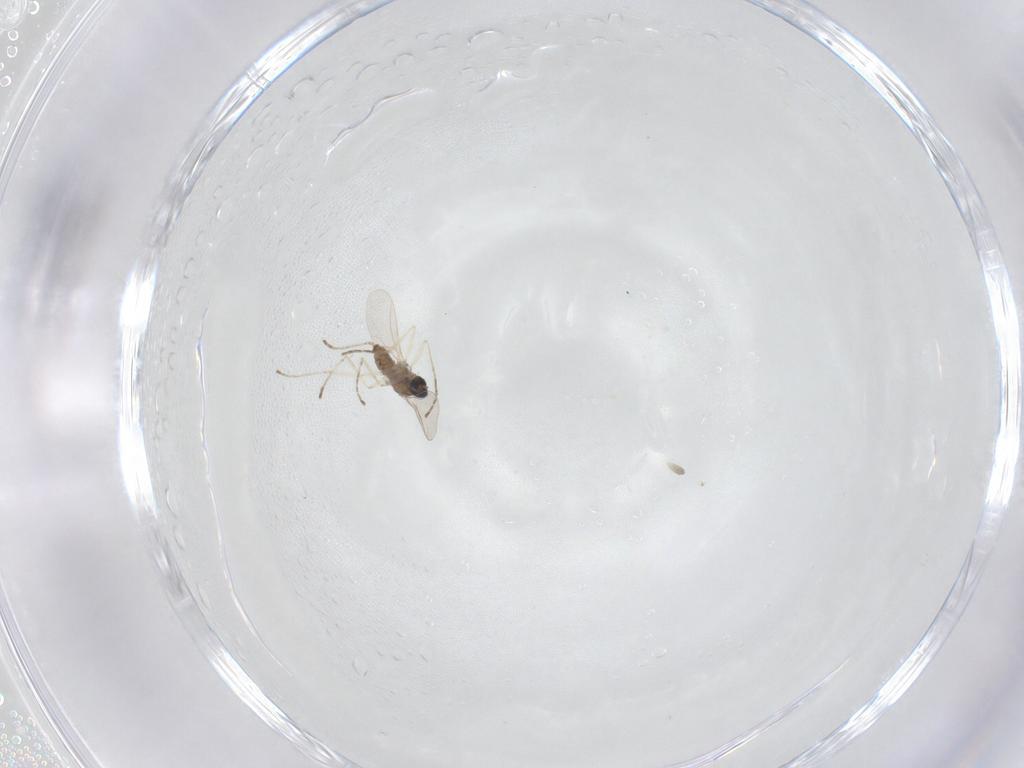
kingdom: Animalia
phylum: Arthropoda
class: Insecta
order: Diptera
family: Cecidomyiidae
